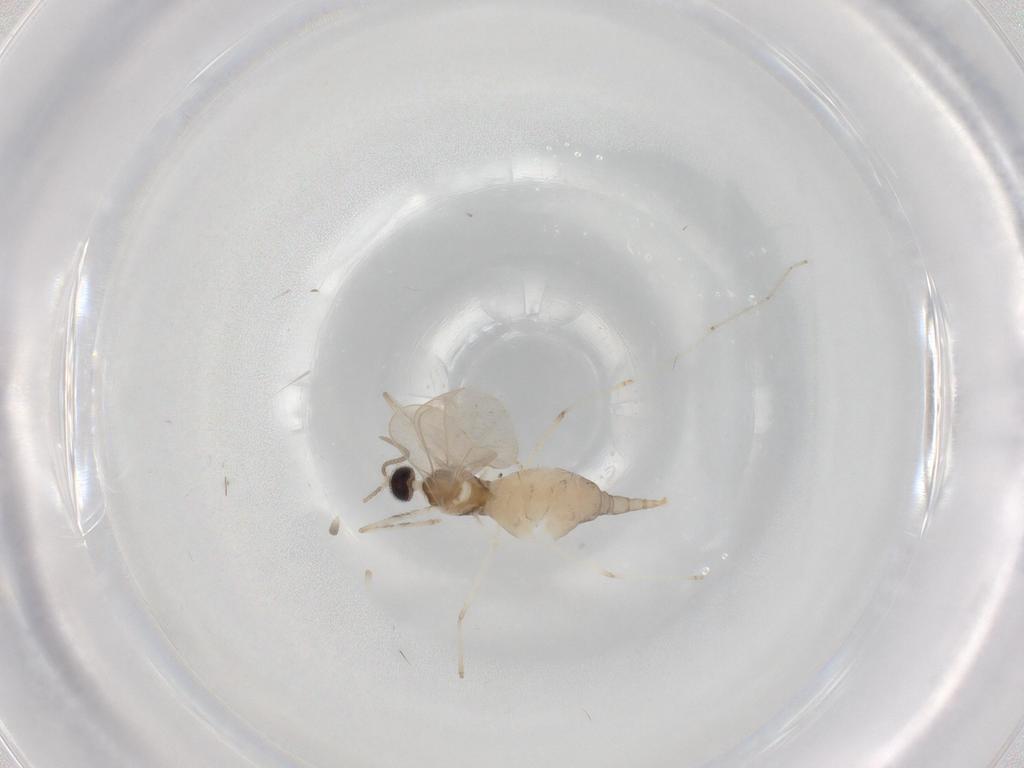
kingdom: Animalia
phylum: Arthropoda
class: Insecta
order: Diptera
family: Cecidomyiidae
